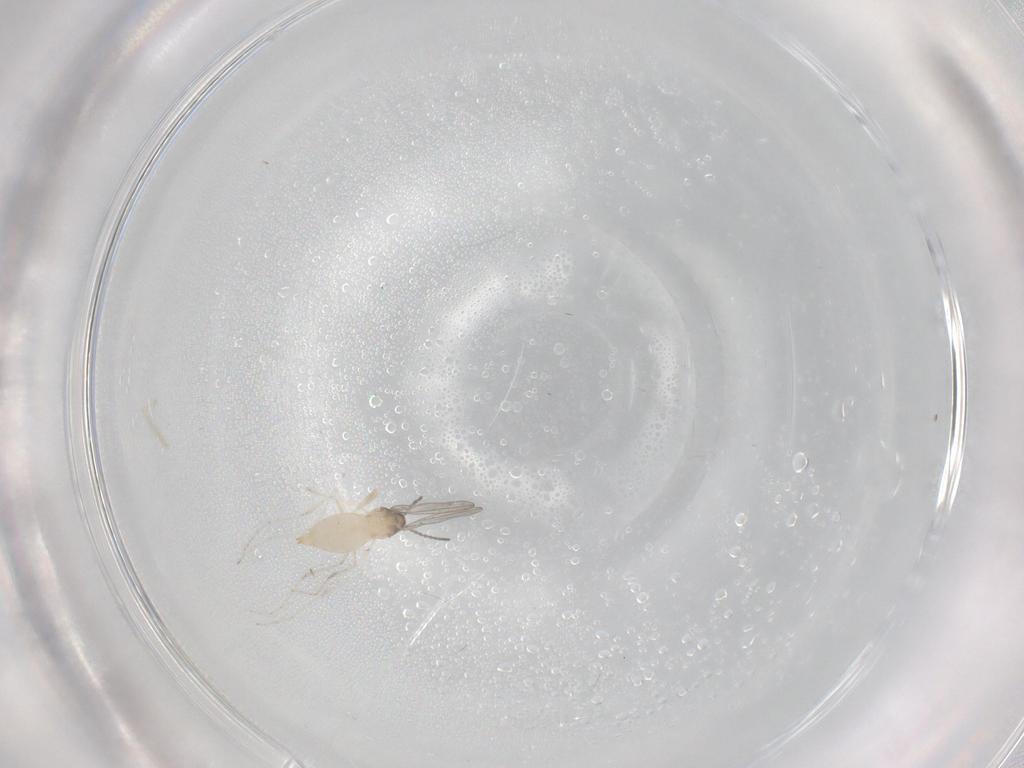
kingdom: Animalia
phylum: Arthropoda
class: Insecta
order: Diptera
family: Cecidomyiidae
